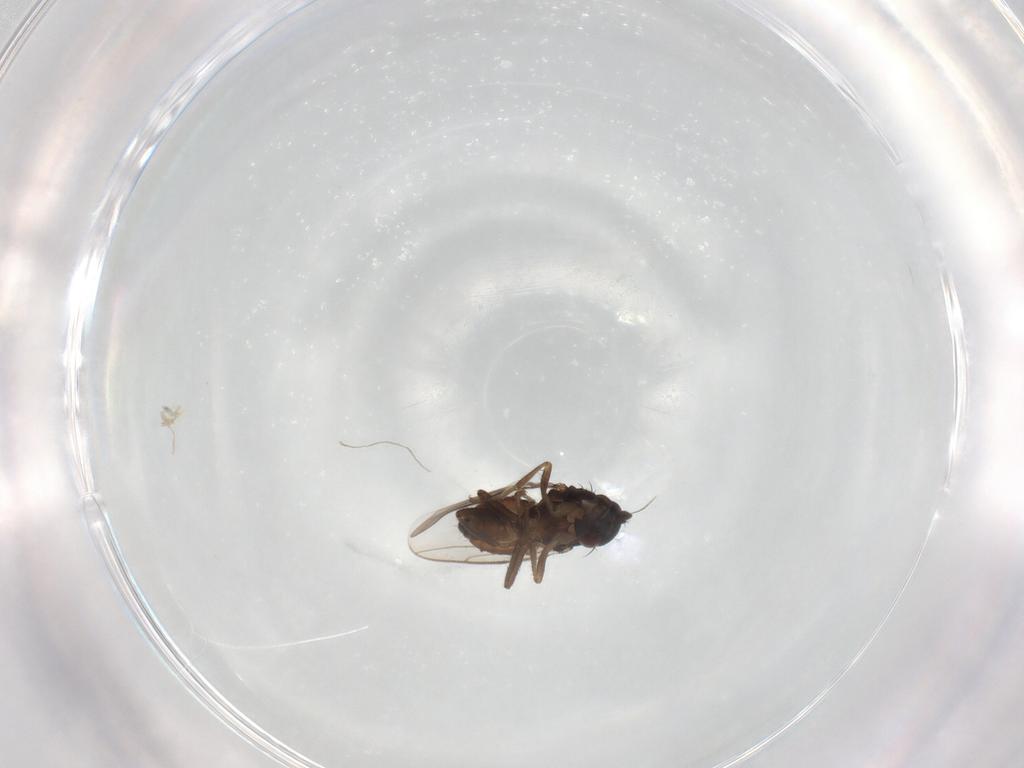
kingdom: Animalia
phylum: Arthropoda
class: Insecta
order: Diptera
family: Sphaeroceridae
